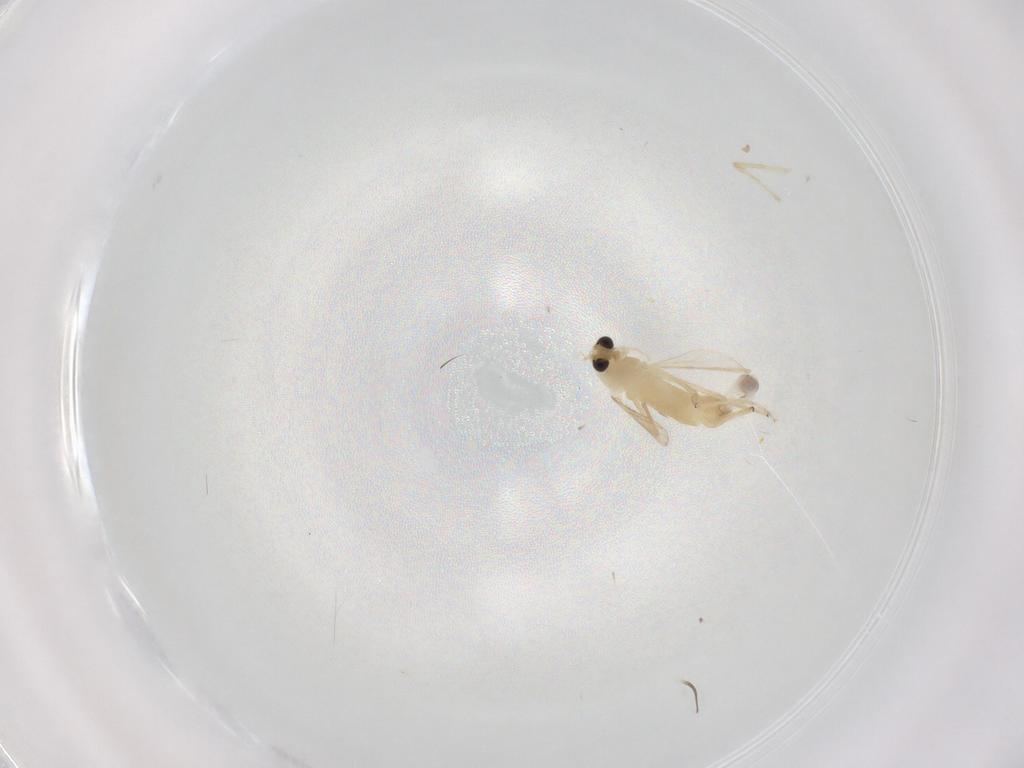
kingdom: Animalia
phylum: Arthropoda
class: Insecta
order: Diptera
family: Chironomidae
